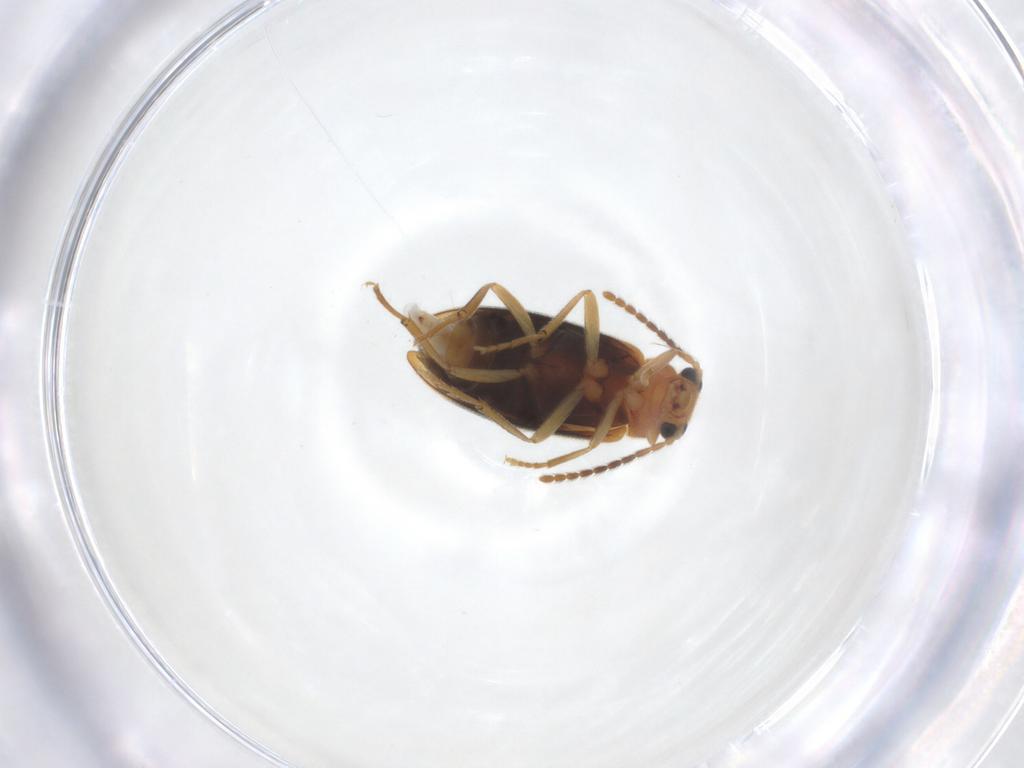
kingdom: Animalia
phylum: Arthropoda
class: Insecta
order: Coleoptera
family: Melandryidae
